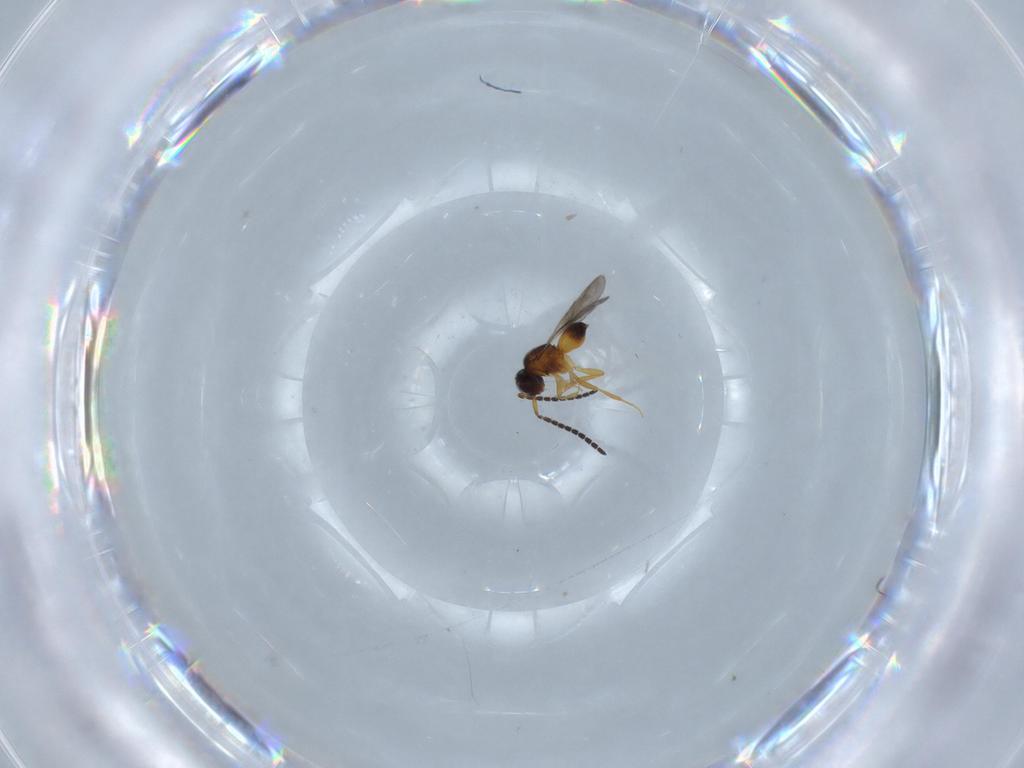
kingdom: Animalia
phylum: Arthropoda
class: Insecta
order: Hymenoptera
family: Ceraphronidae
